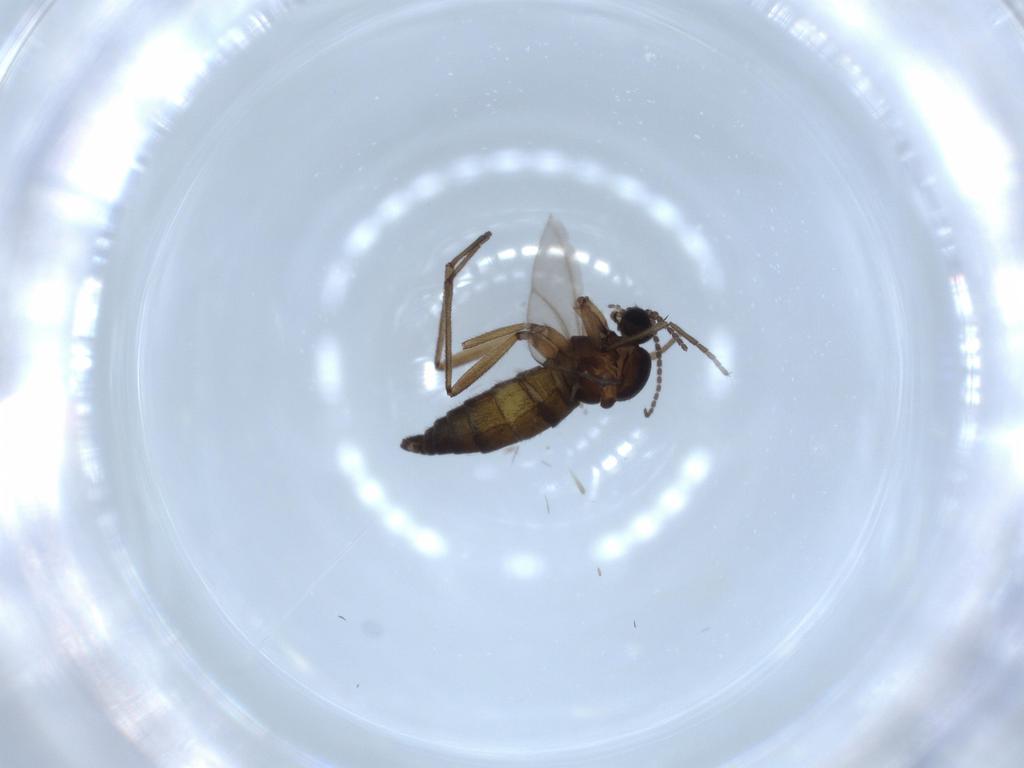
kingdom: Animalia
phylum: Arthropoda
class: Insecta
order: Diptera
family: Sciaridae
